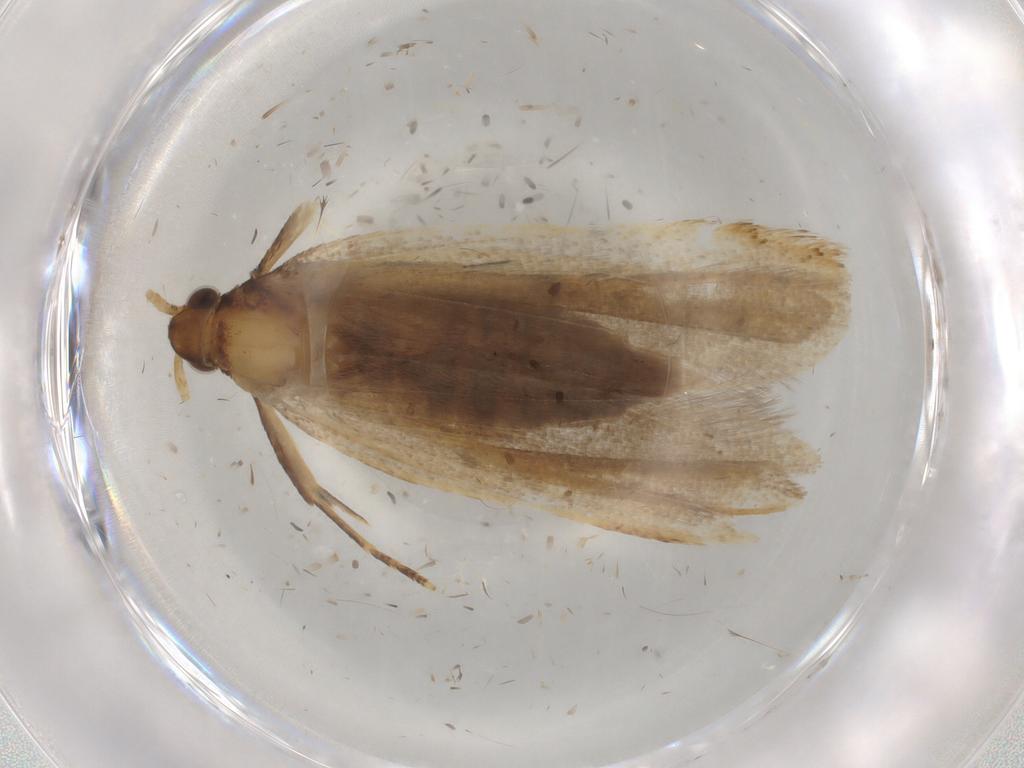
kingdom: Animalia
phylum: Arthropoda
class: Insecta
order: Lepidoptera
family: Lecithoceridae
